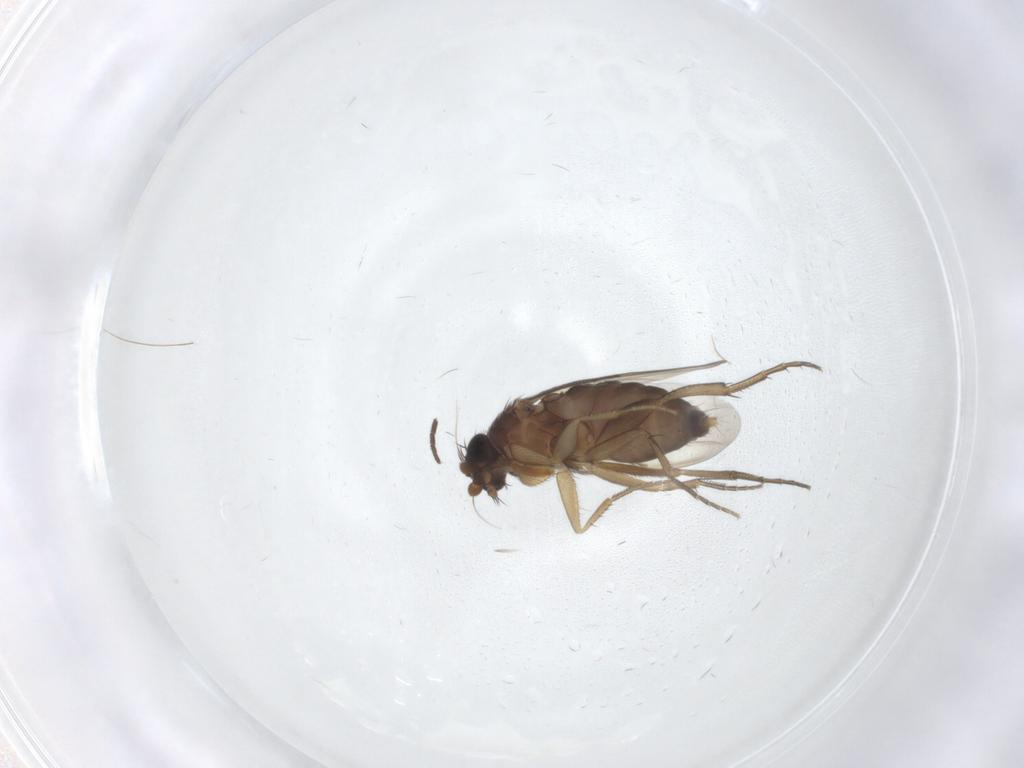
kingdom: Animalia
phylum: Arthropoda
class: Insecta
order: Diptera
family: Phoridae
